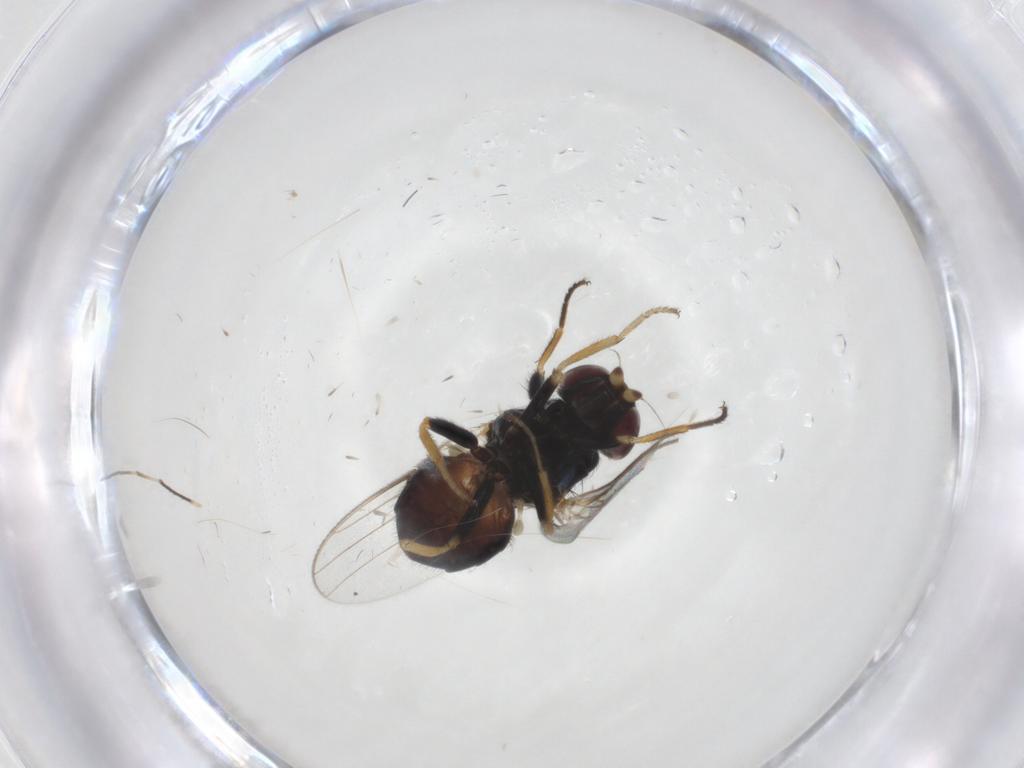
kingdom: Animalia
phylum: Arthropoda
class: Insecta
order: Diptera
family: Chloropidae
